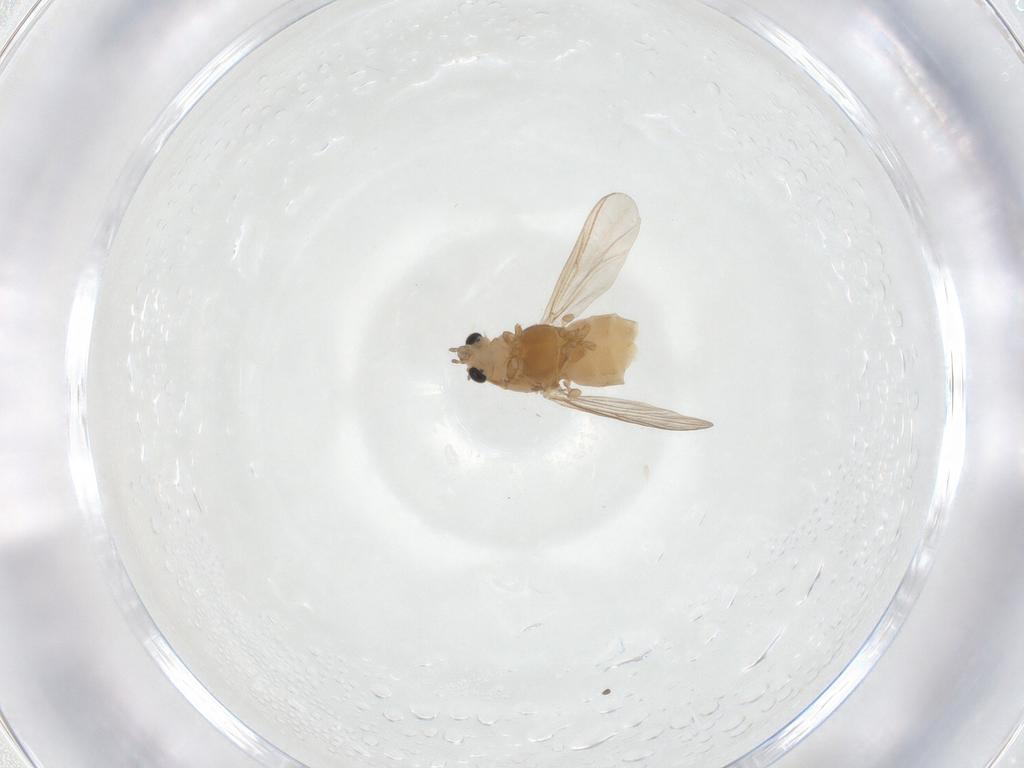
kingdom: Animalia
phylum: Arthropoda
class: Insecta
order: Diptera
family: Chironomidae
